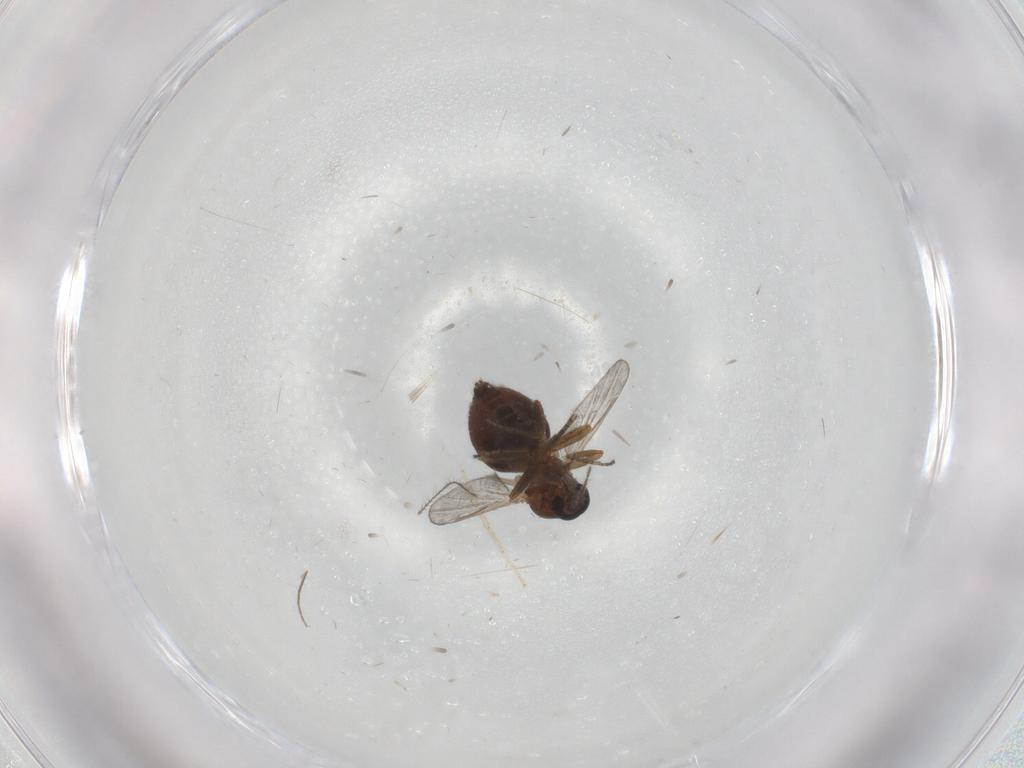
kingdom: Animalia
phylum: Arthropoda
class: Insecta
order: Diptera
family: Ceratopogonidae
